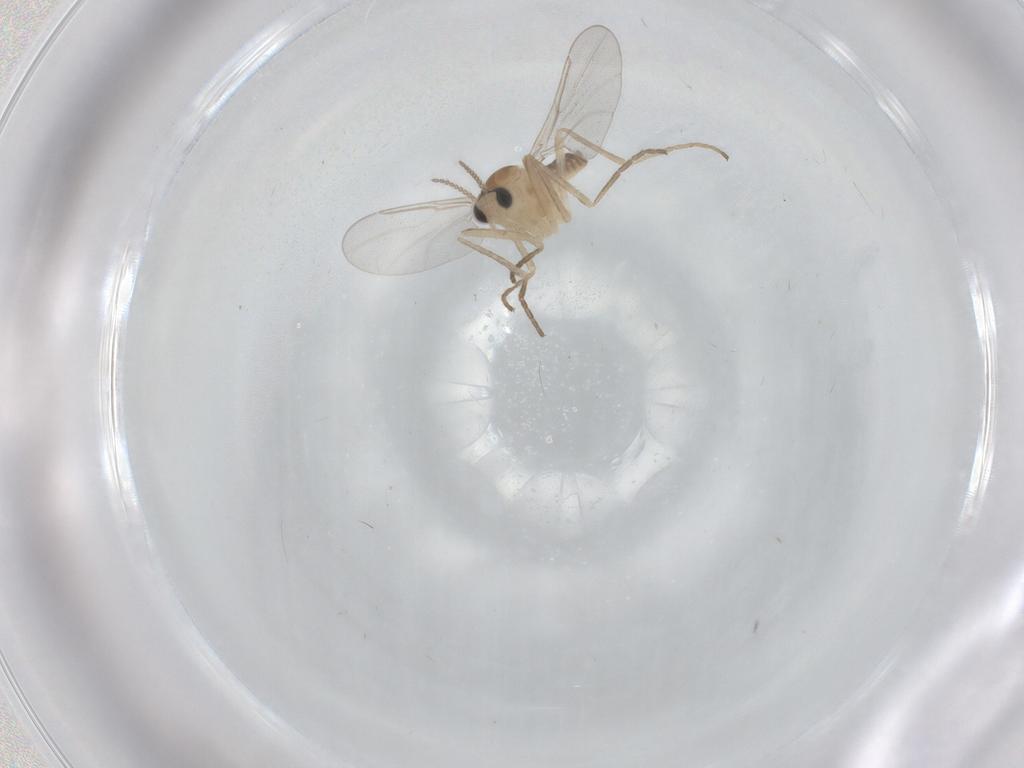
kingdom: Animalia
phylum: Arthropoda
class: Insecta
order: Diptera
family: Cecidomyiidae
